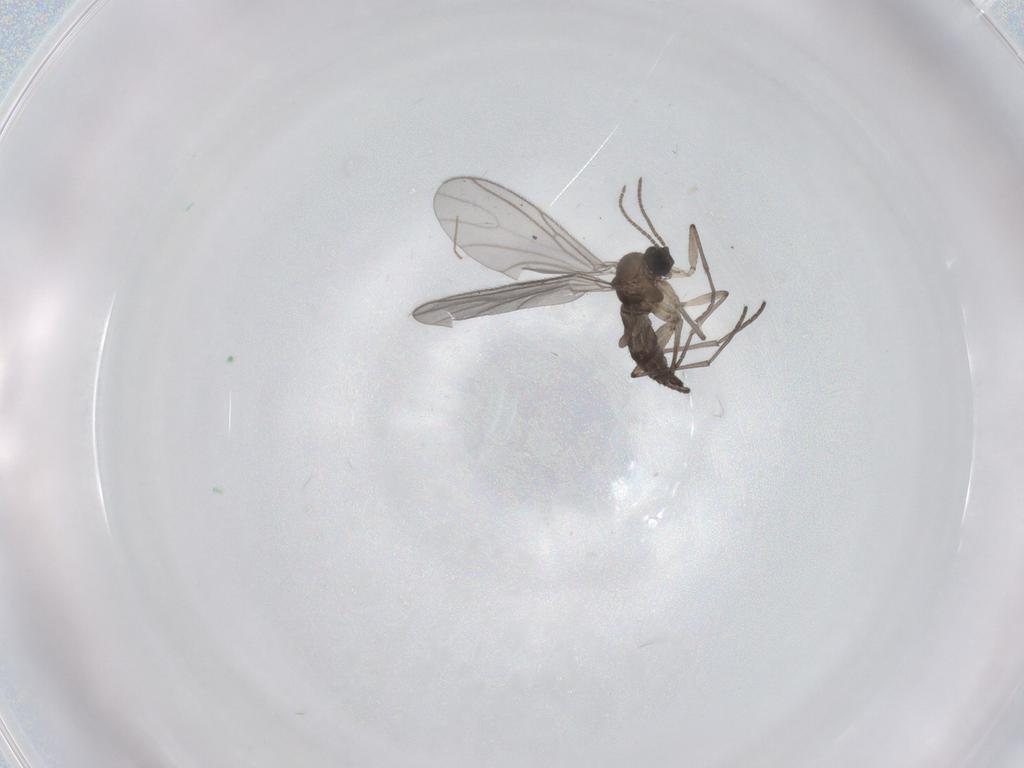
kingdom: Animalia
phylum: Arthropoda
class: Insecta
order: Diptera
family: Sciaridae
